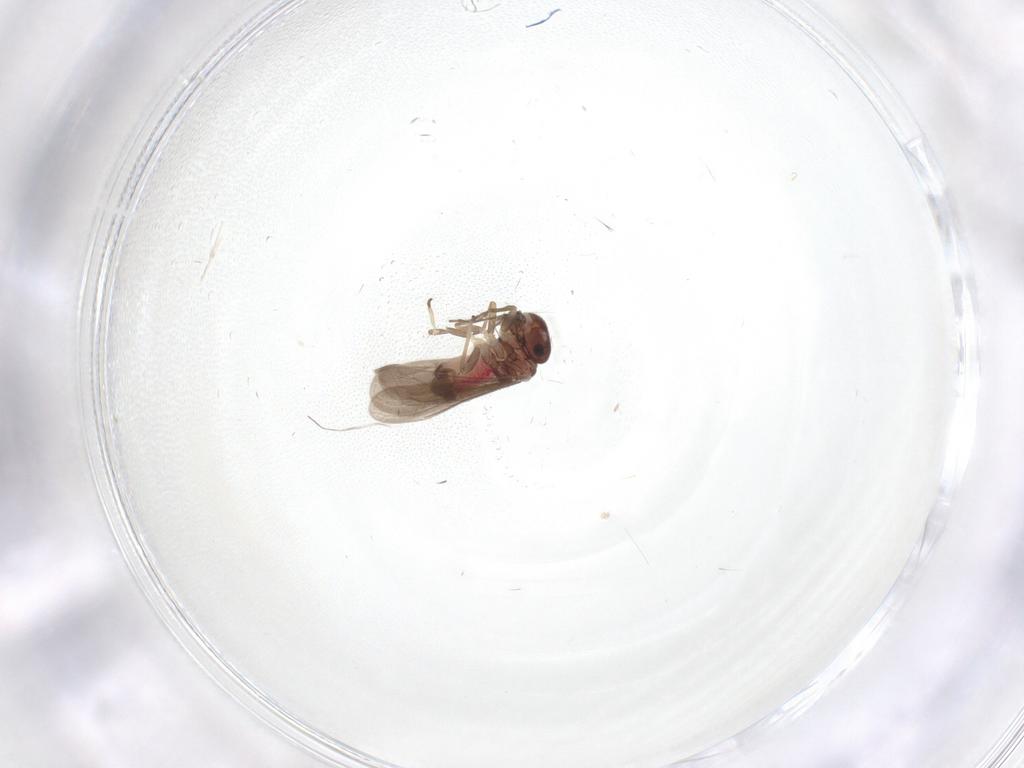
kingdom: Animalia
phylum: Arthropoda
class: Insecta
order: Psocodea
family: Asiopsocidae
